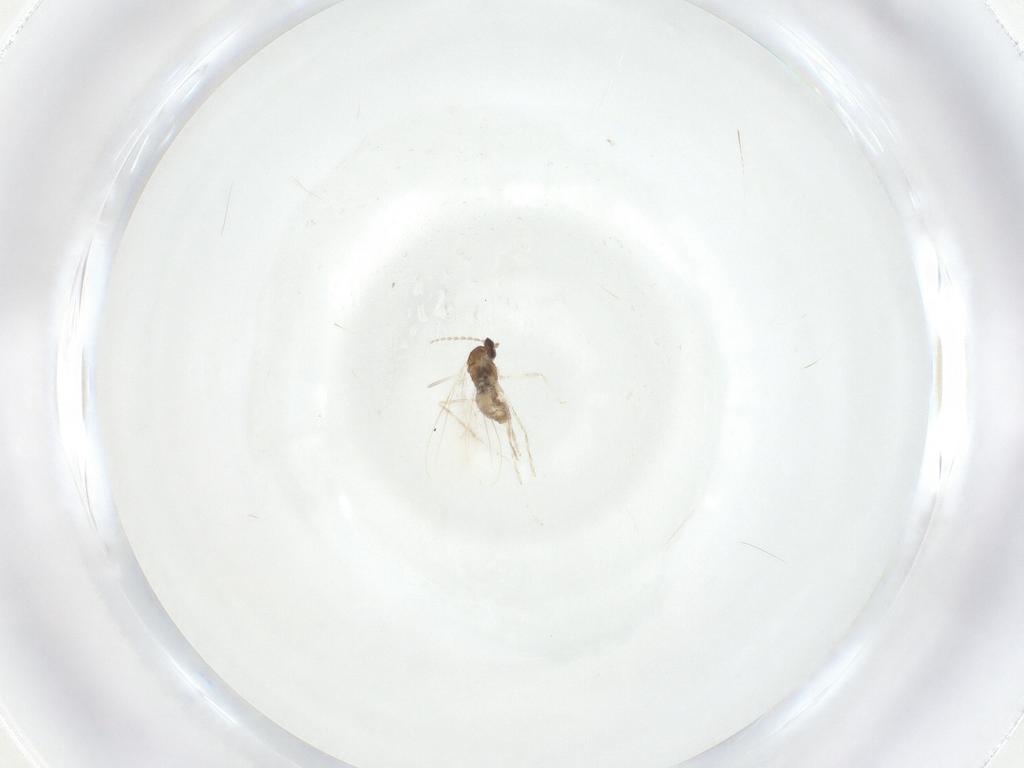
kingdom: Animalia
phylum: Arthropoda
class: Insecta
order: Diptera
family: Cecidomyiidae
